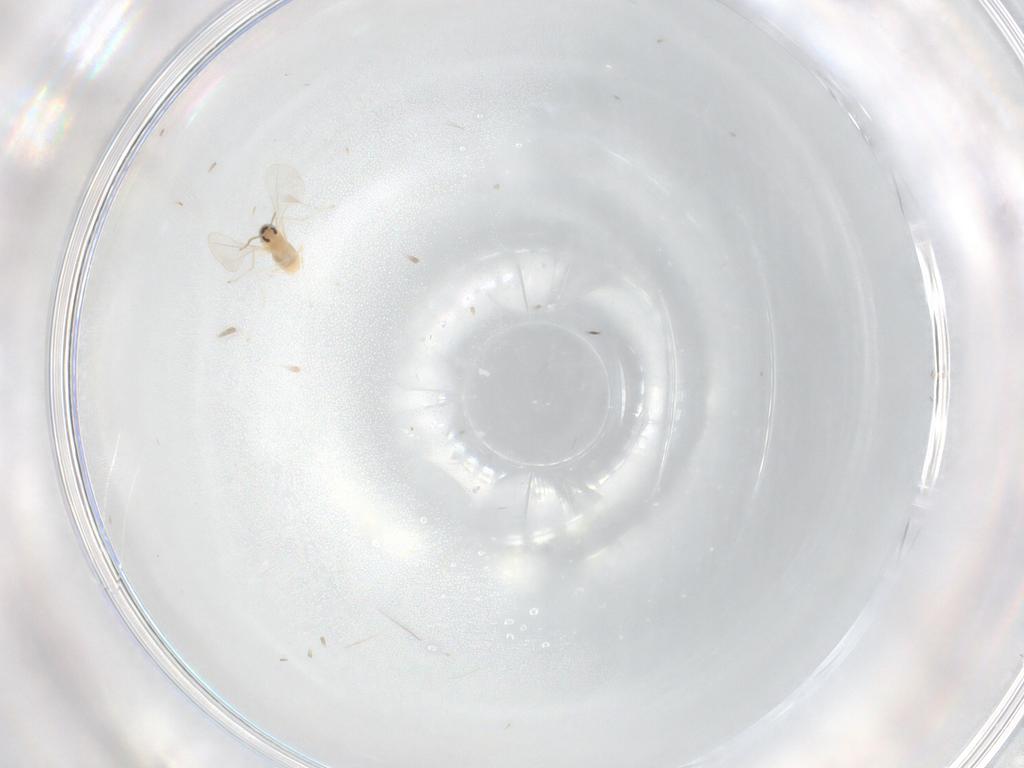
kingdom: Animalia
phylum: Arthropoda
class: Insecta
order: Diptera
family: Cecidomyiidae
